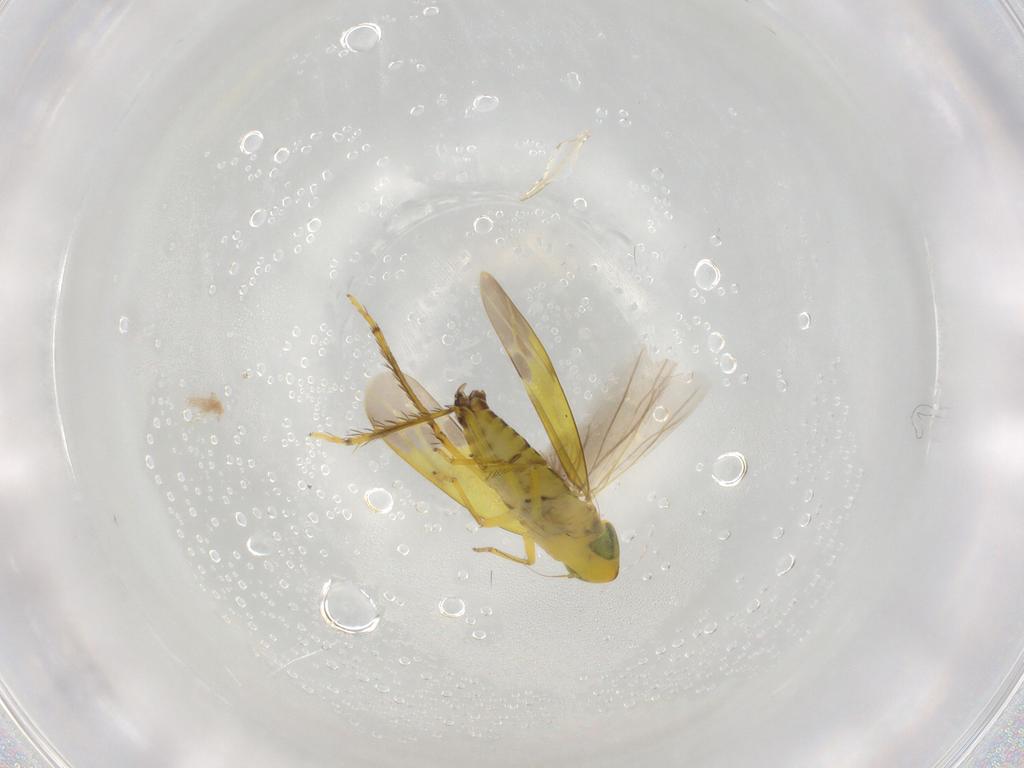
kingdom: Animalia
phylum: Arthropoda
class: Insecta
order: Hemiptera
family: Cicadellidae
